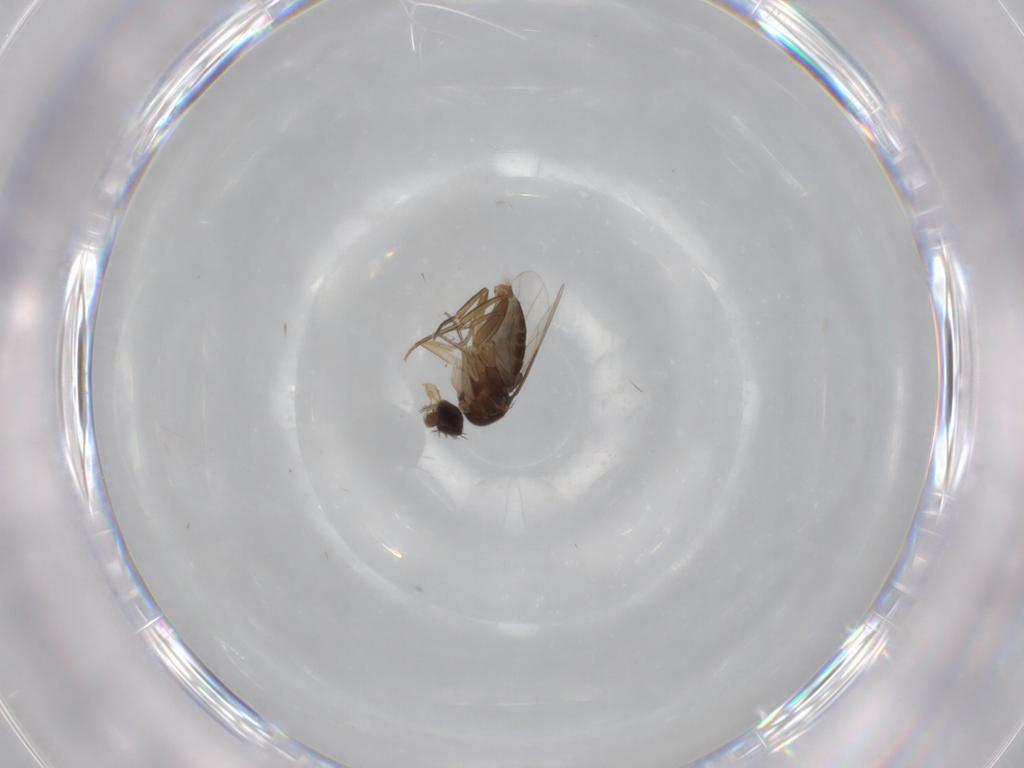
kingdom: Animalia
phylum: Arthropoda
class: Insecta
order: Diptera
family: Phoridae
